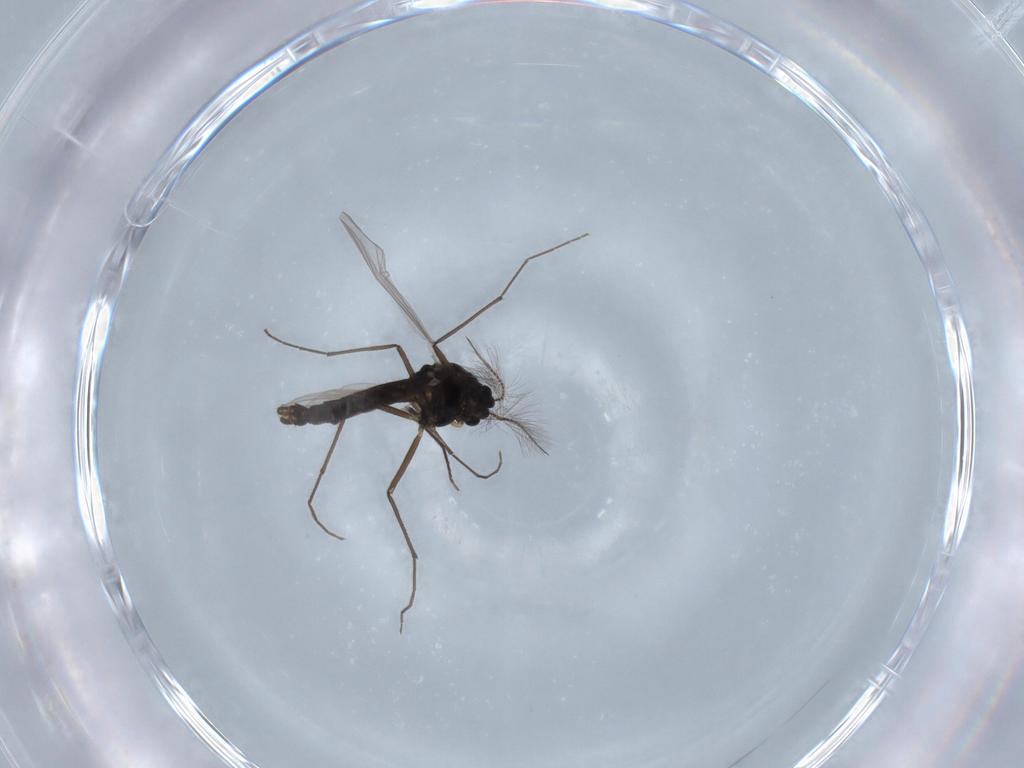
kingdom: Animalia
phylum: Arthropoda
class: Insecta
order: Diptera
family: Chironomidae
